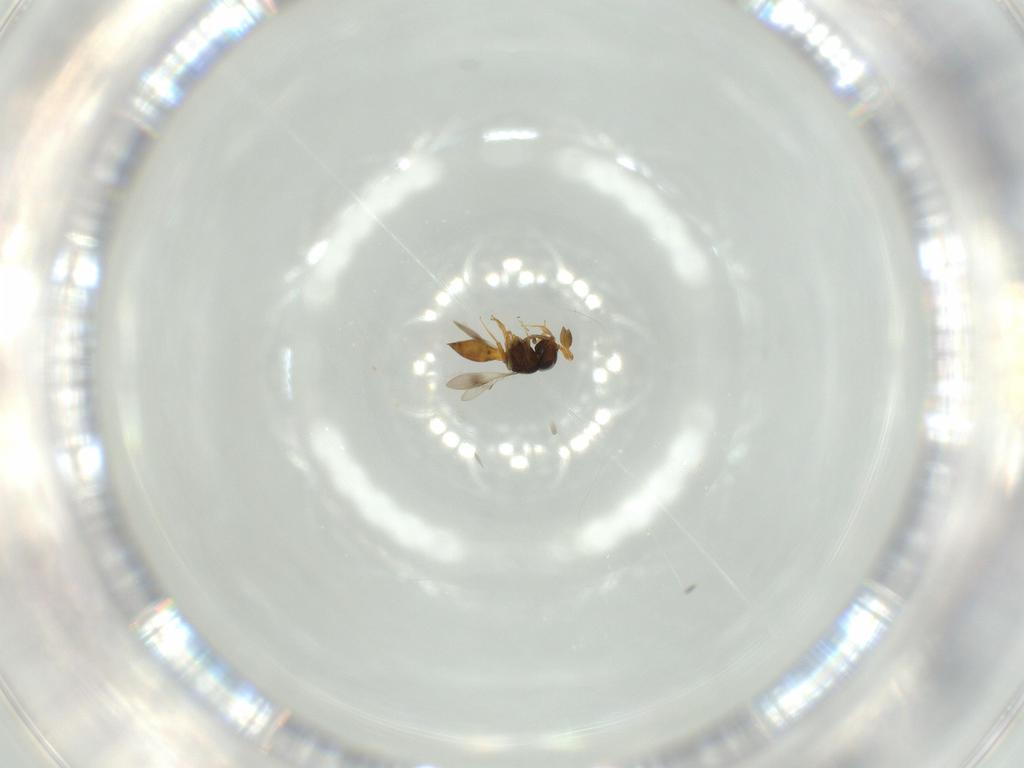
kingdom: Animalia
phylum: Arthropoda
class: Insecta
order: Hymenoptera
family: Scelionidae
